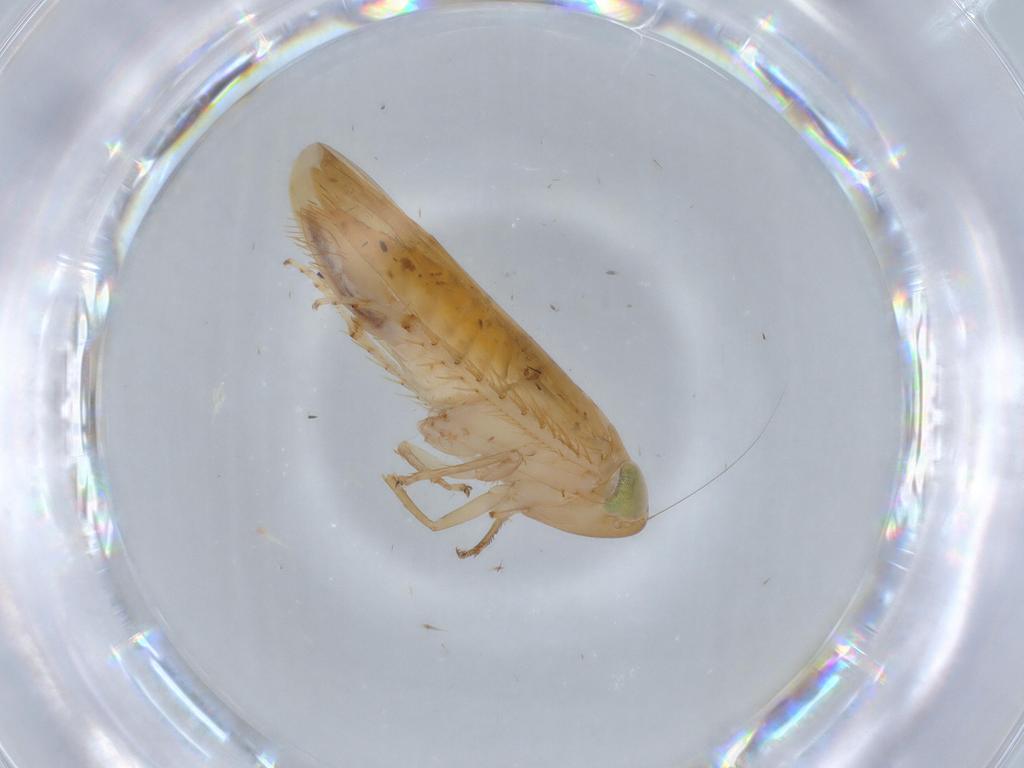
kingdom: Animalia
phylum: Arthropoda
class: Insecta
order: Hemiptera
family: Cicadellidae
